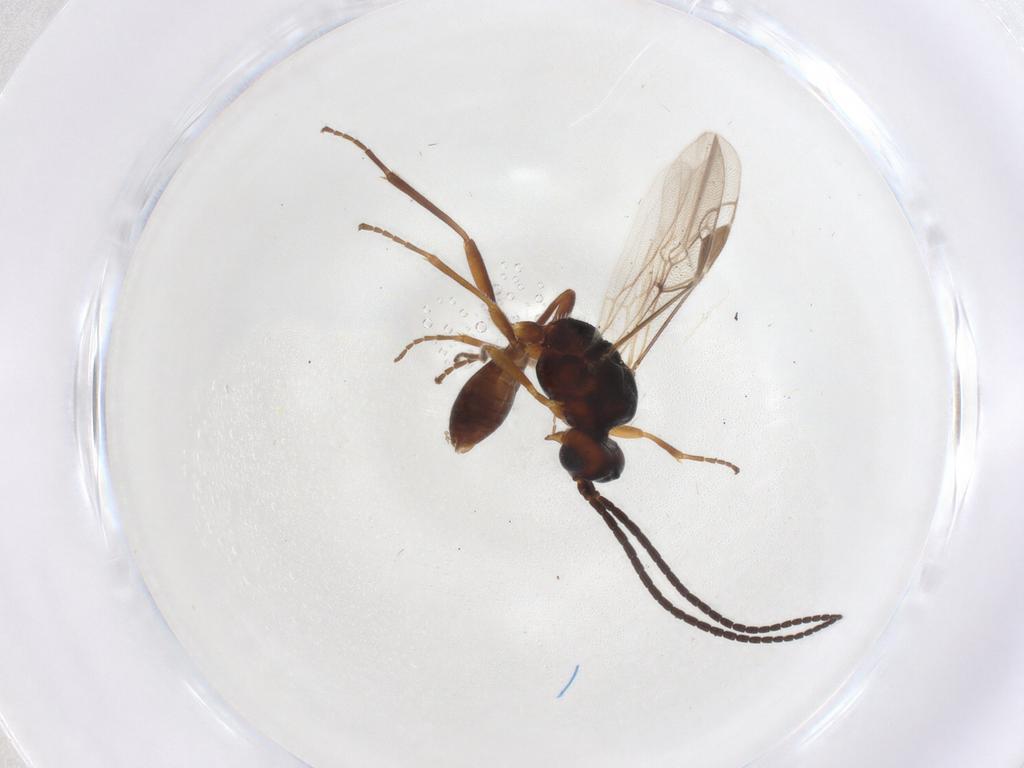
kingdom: Animalia
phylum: Arthropoda
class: Insecta
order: Hymenoptera
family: Braconidae
